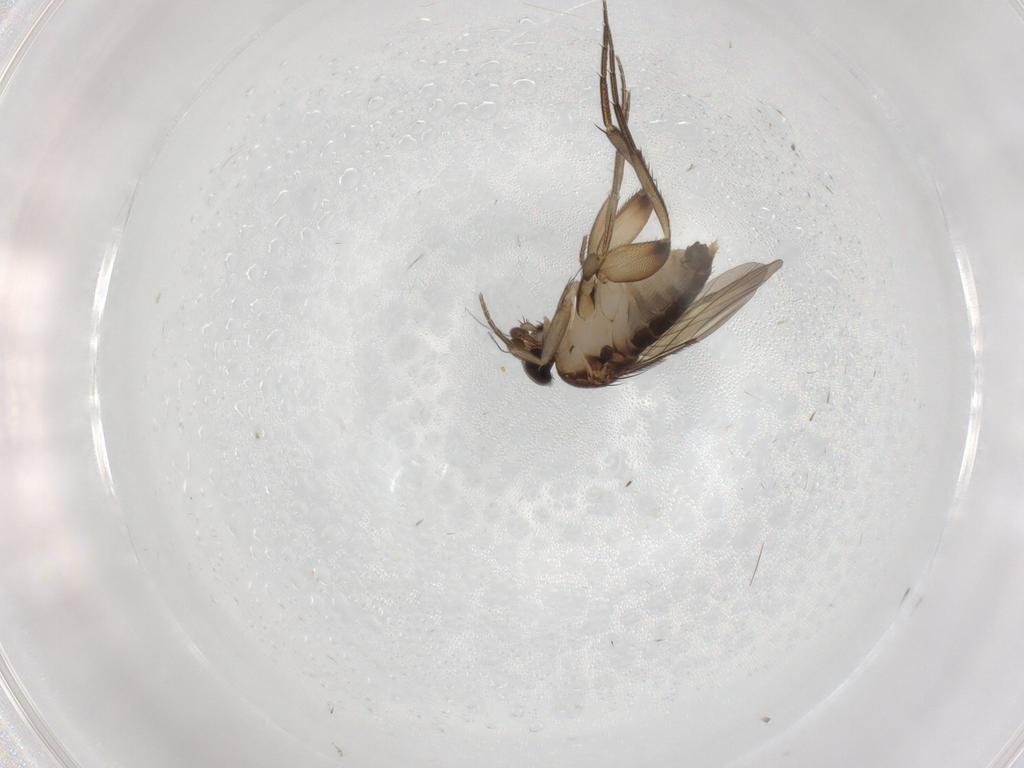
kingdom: Animalia
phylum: Arthropoda
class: Insecta
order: Diptera
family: Phoridae
